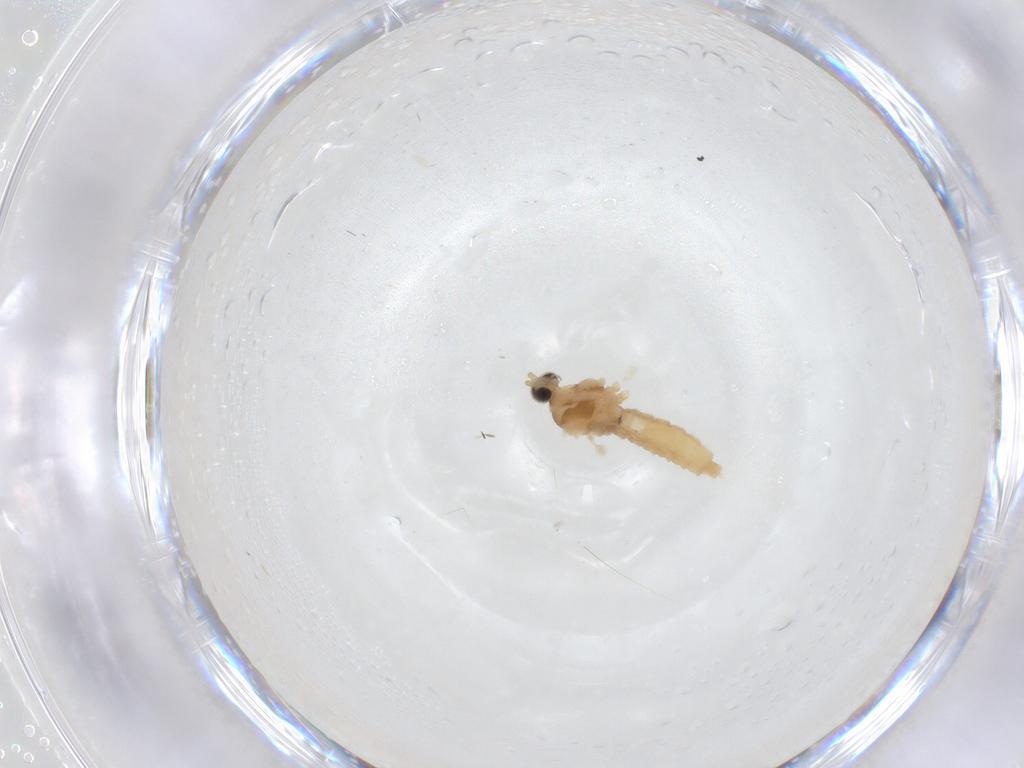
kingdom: Animalia
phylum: Arthropoda
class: Insecta
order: Diptera
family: Cecidomyiidae
